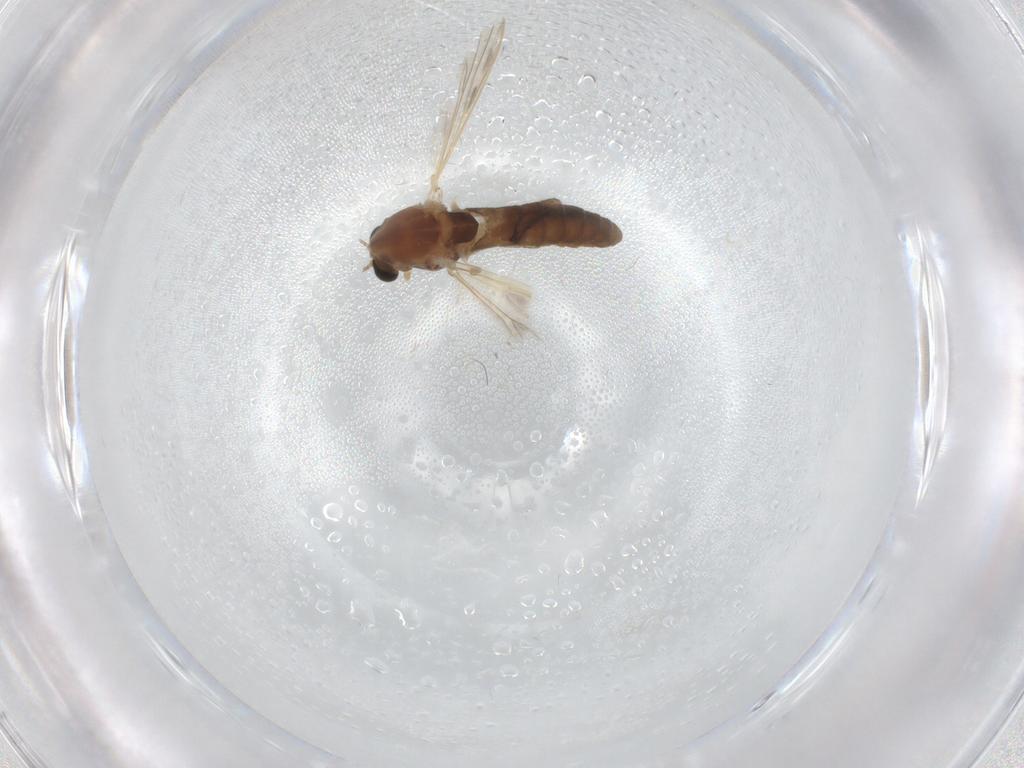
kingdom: Animalia
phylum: Arthropoda
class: Insecta
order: Diptera
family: Chironomidae
